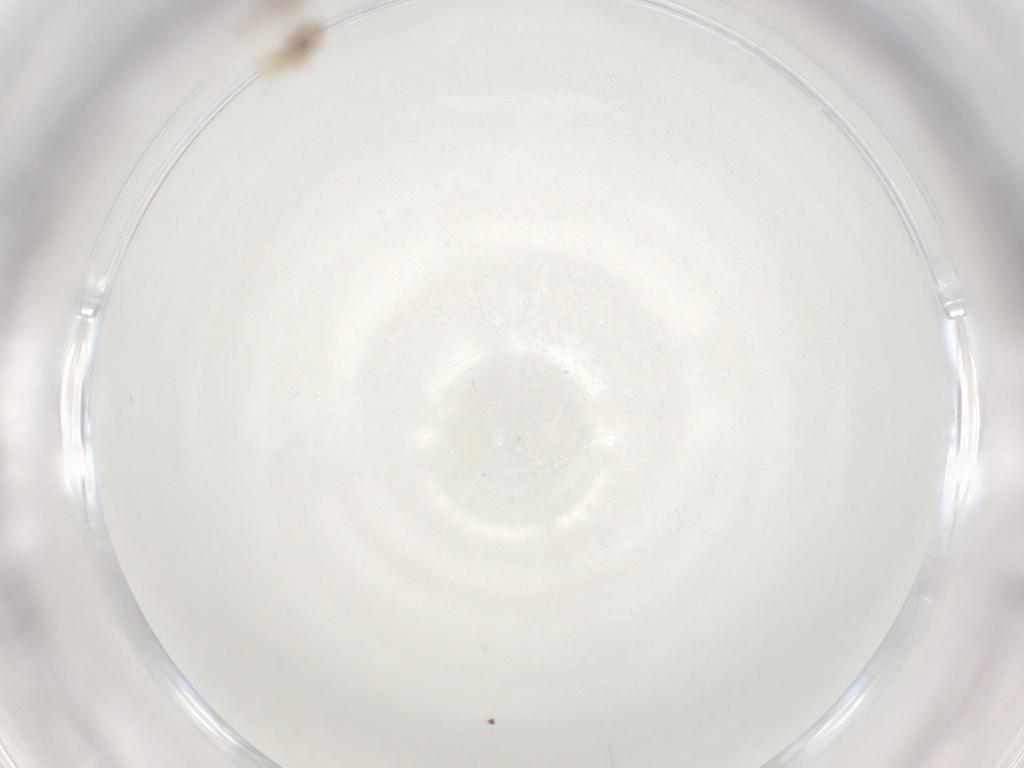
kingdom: Animalia
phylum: Arthropoda
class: Insecta
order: Hymenoptera
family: Aphelinidae
